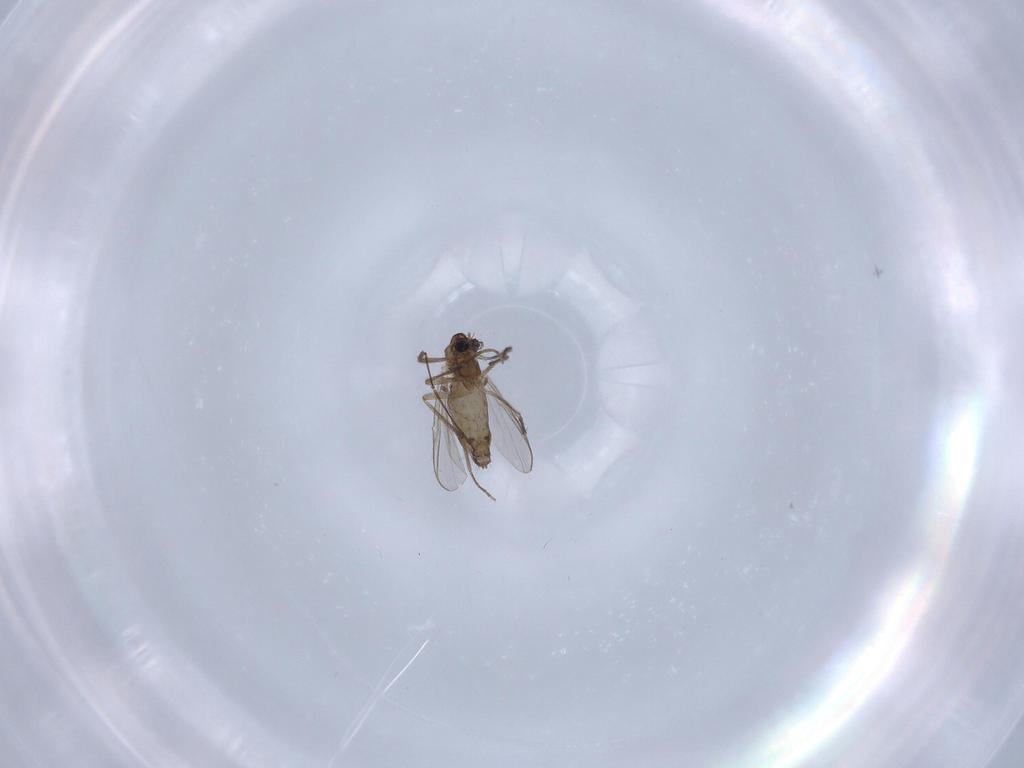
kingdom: Animalia
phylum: Arthropoda
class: Insecta
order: Diptera
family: Chironomidae
